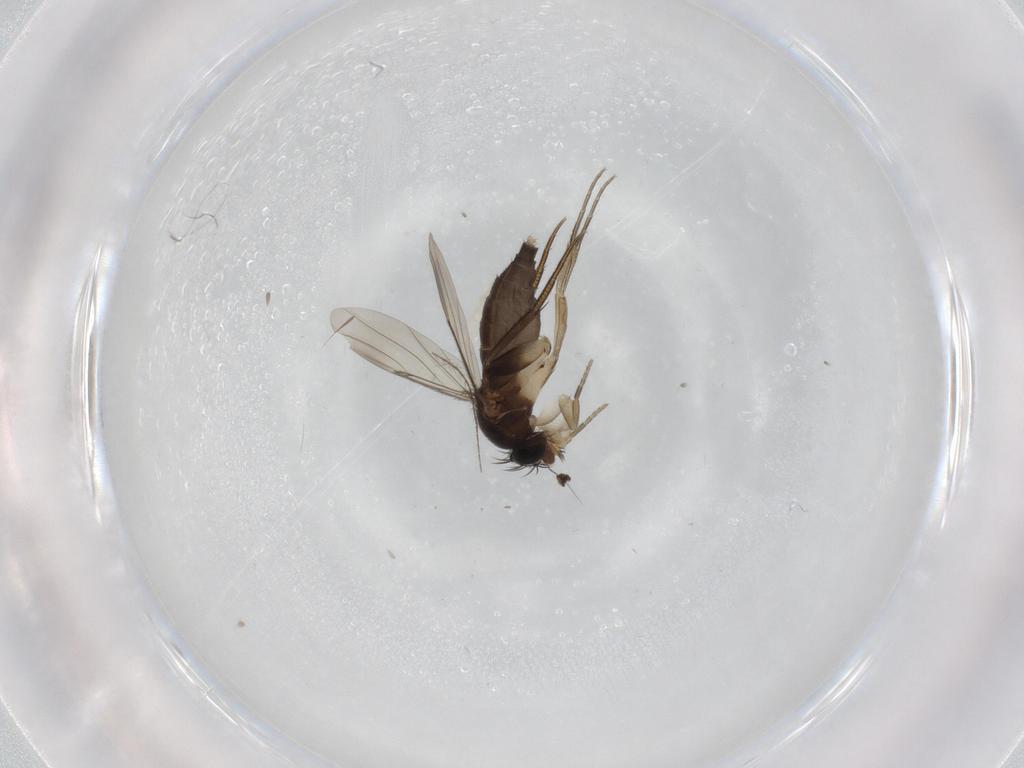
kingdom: Animalia
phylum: Arthropoda
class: Insecta
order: Diptera
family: Phoridae
